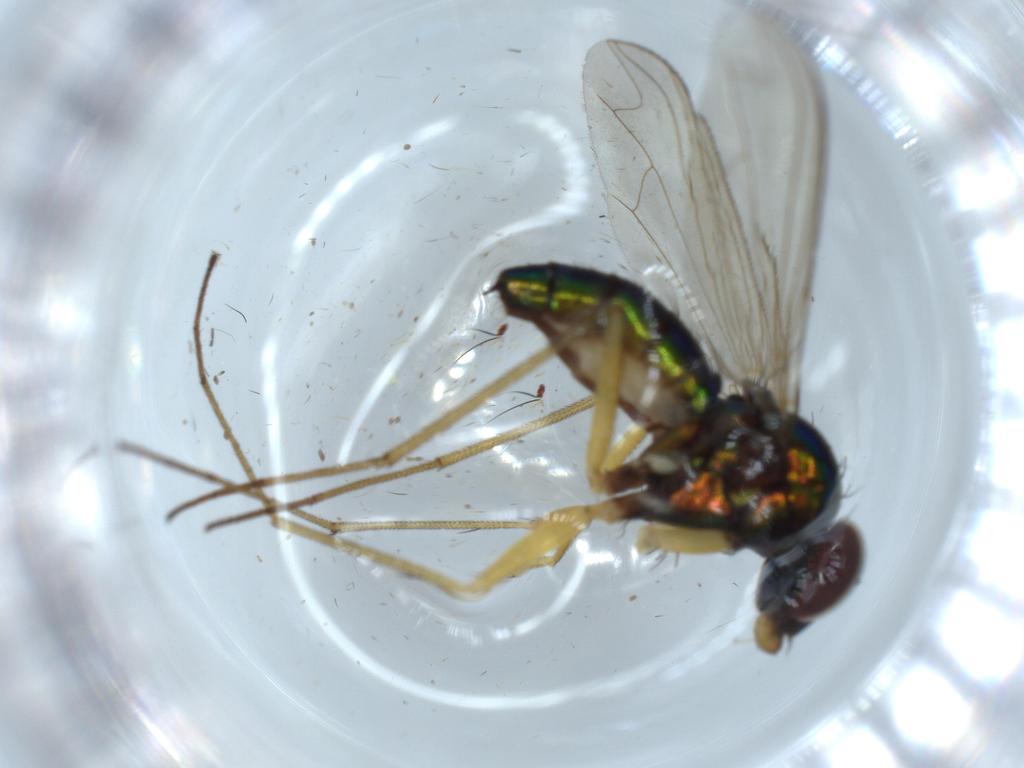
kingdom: Animalia
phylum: Arthropoda
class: Insecta
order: Diptera
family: Dolichopodidae
